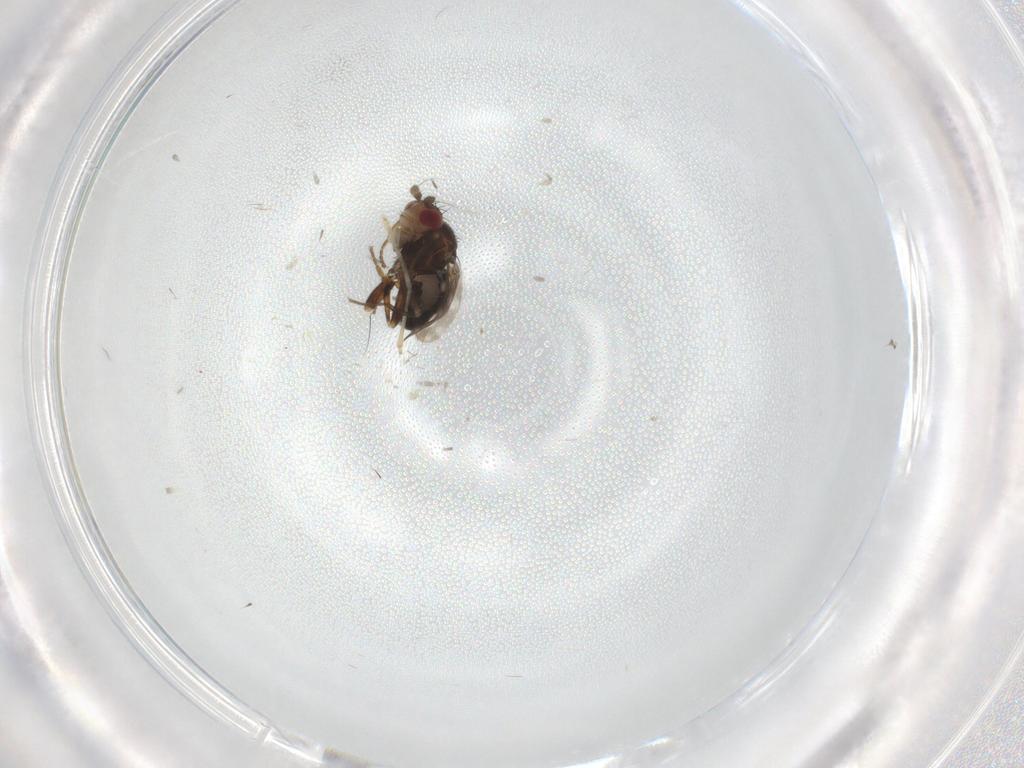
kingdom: Animalia
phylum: Arthropoda
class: Insecta
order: Diptera
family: Sphaeroceridae
